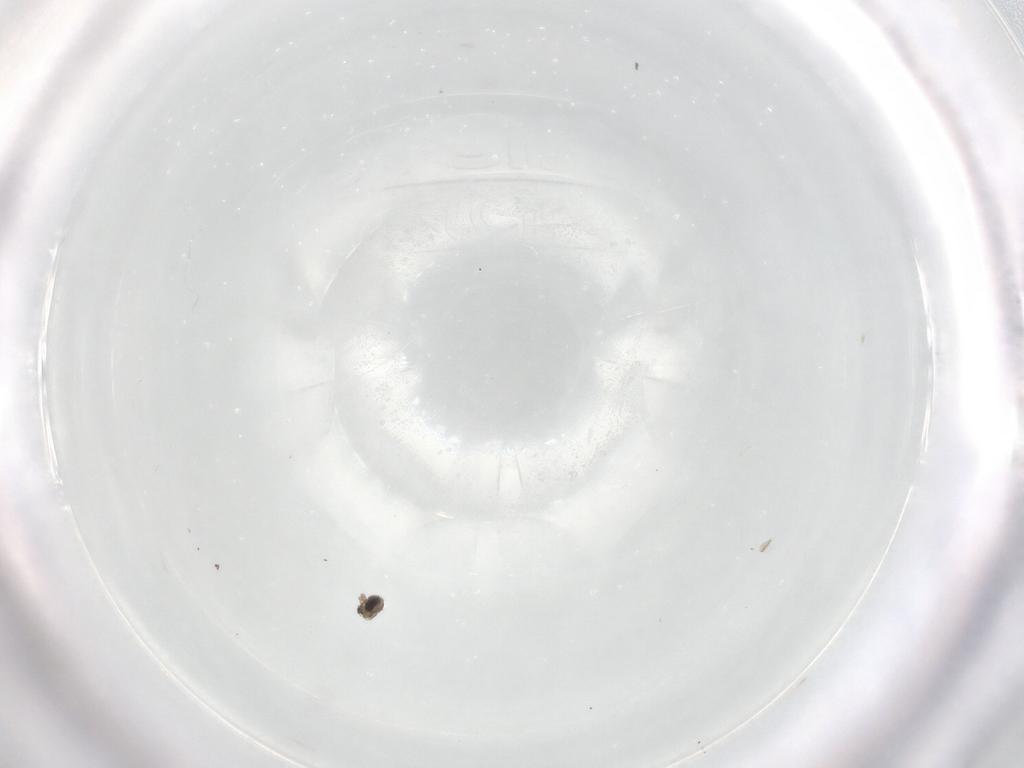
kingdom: Animalia
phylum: Arthropoda
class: Insecta
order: Diptera
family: Cecidomyiidae
